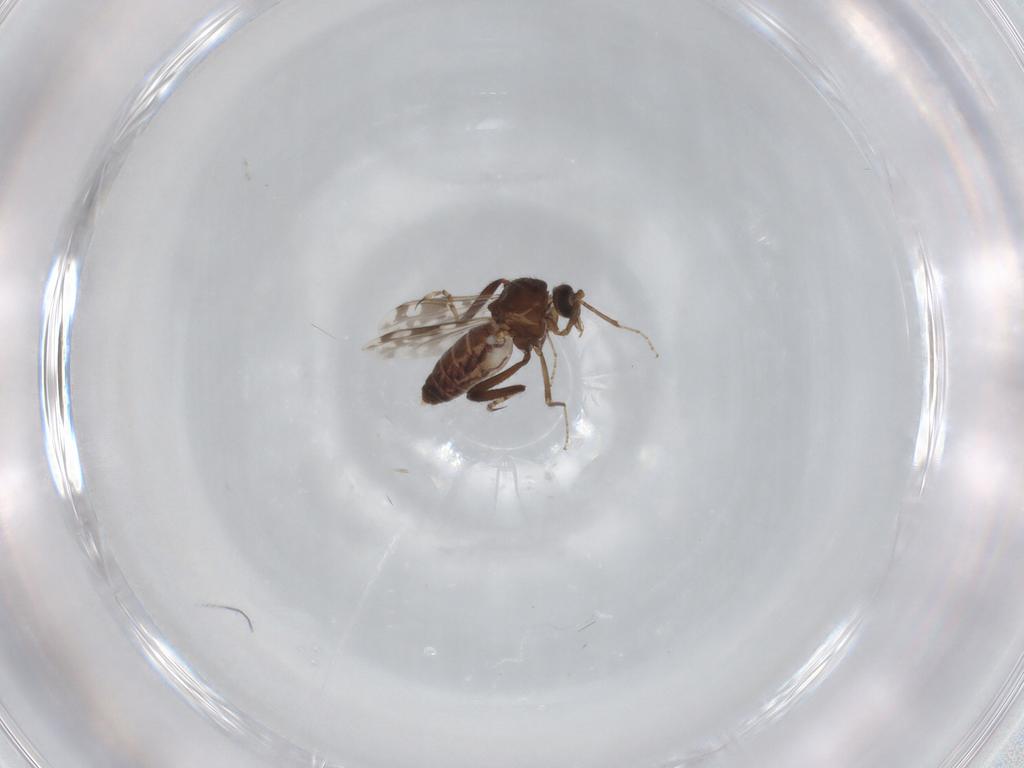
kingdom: Animalia
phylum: Arthropoda
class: Insecta
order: Diptera
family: Ceratopogonidae
